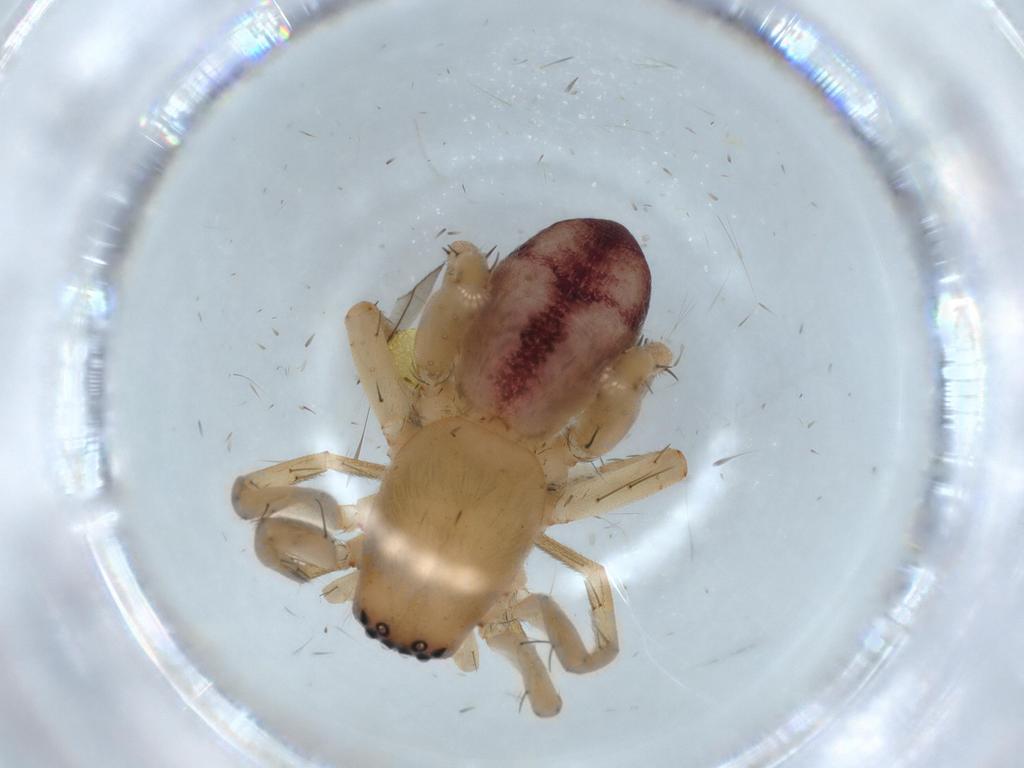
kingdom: Animalia
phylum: Arthropoda
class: Arachnida
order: Araneae
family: Clubionidae
